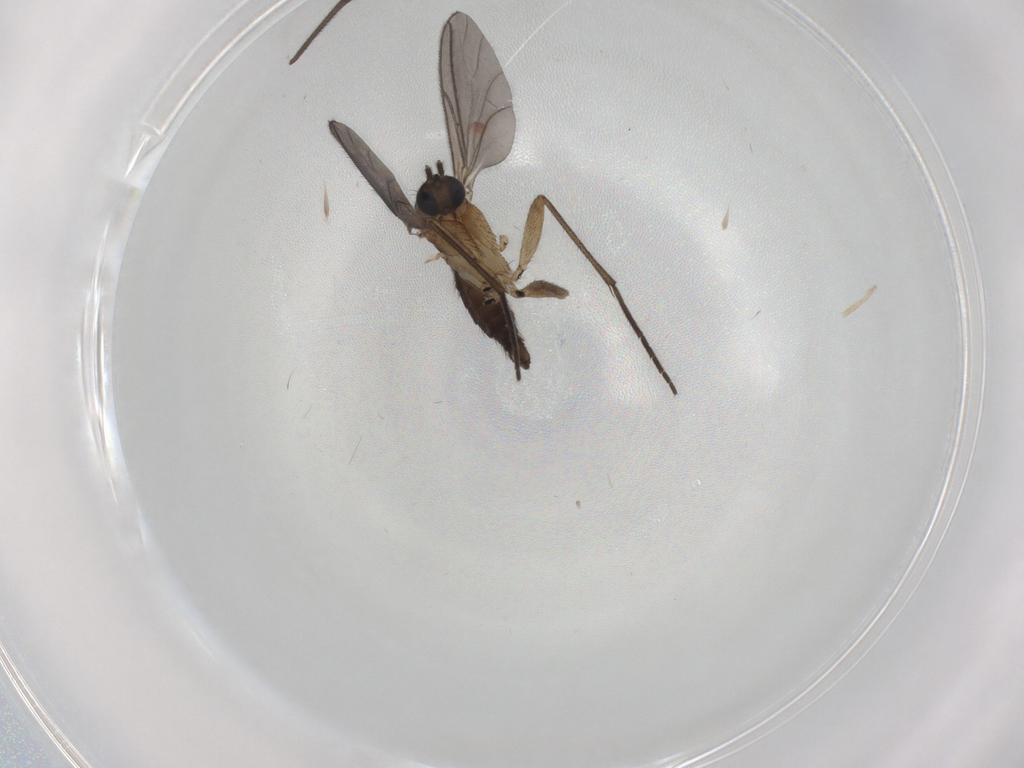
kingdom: Animalia
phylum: Arthropoda
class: Insecta
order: Diptera
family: Sciaridae
